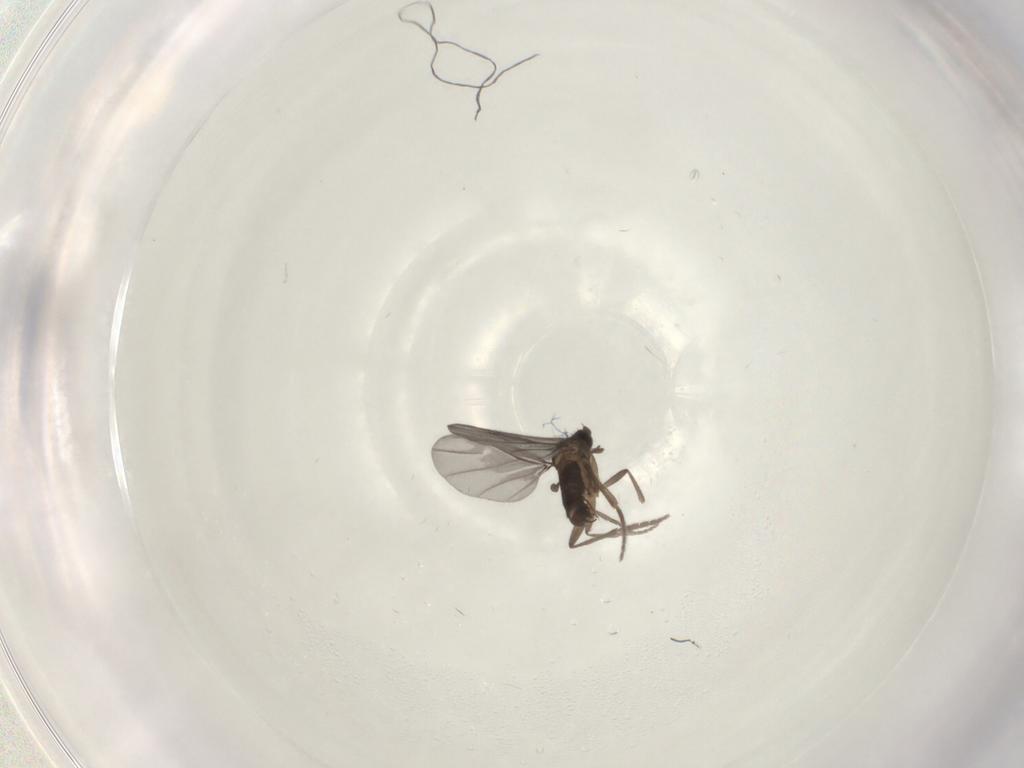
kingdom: Animalia
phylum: Arthropoda
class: Insecta
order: Diptera
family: Phoridae
